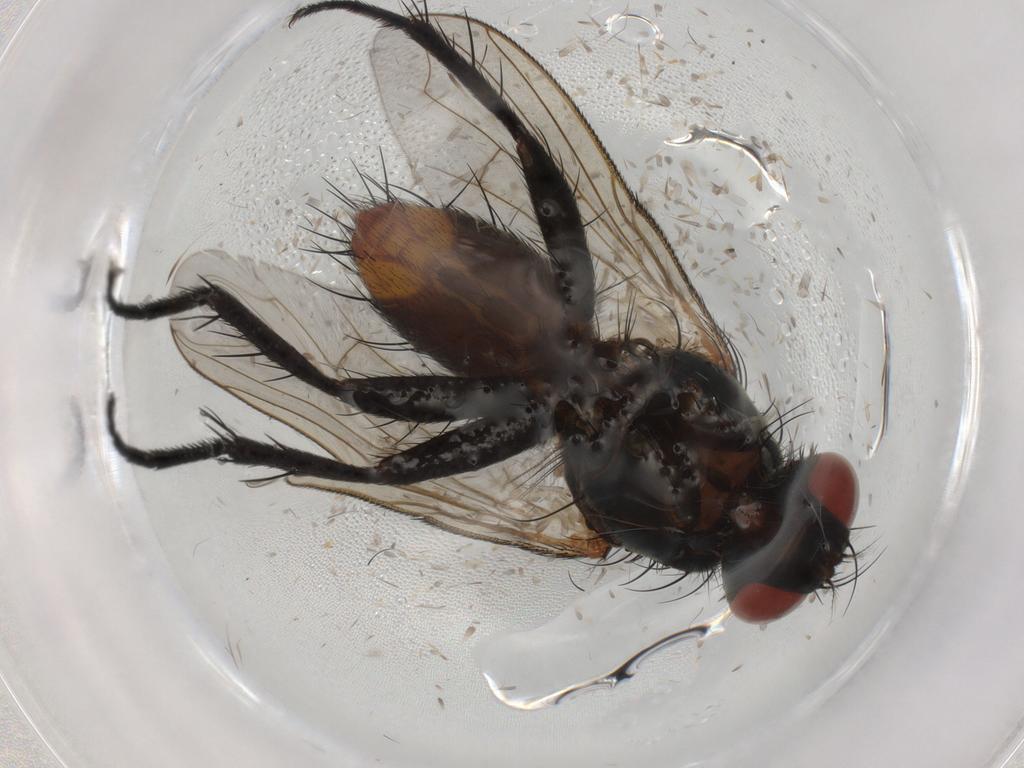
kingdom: Animalia
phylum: Arthropoda
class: Insecta
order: Diptera
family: Sarcophagidae
